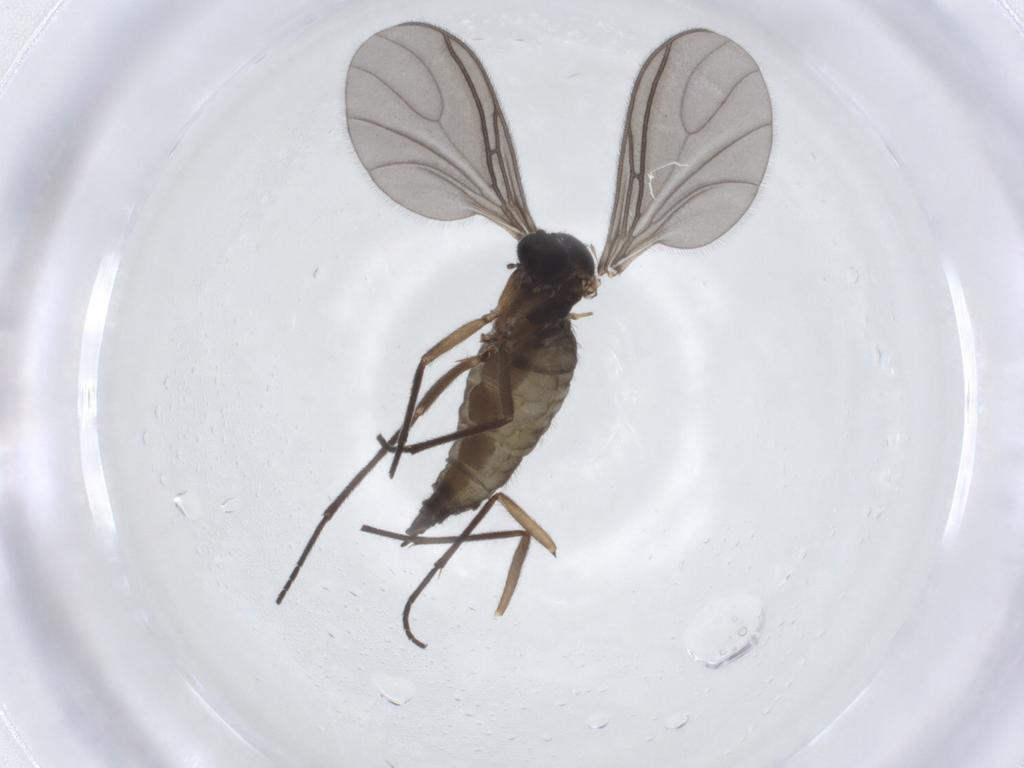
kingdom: Animalia
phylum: Arthropoda
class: Insecta
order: Diptera
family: Sciaridae
